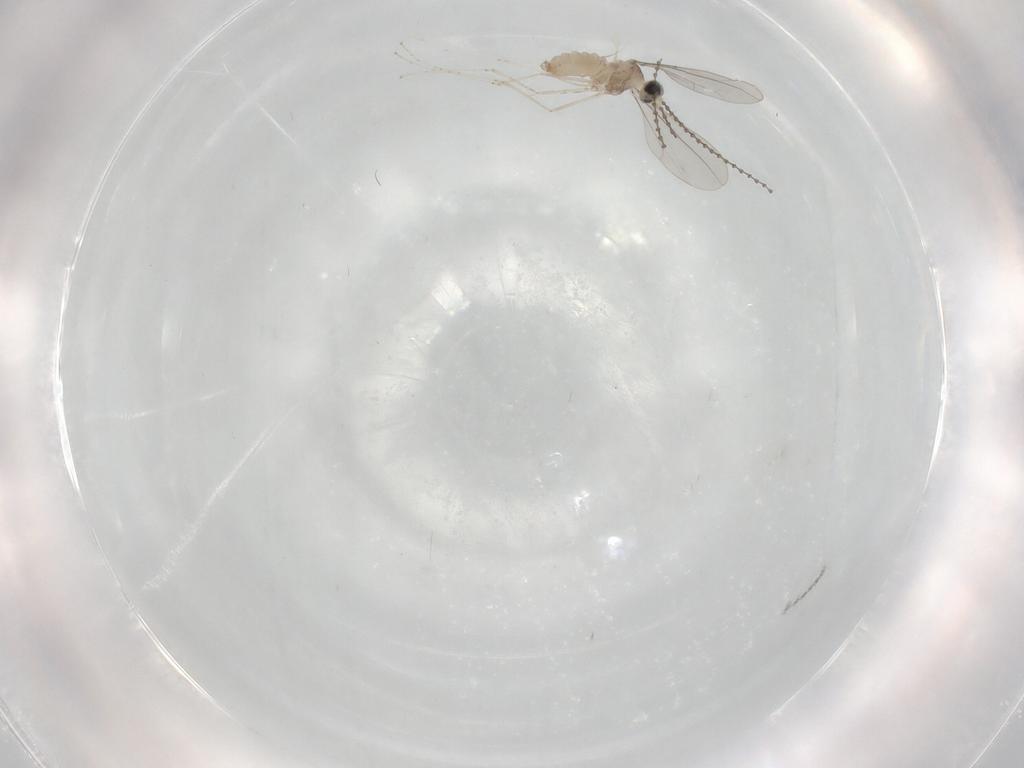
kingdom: Animalia
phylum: Arthropoda
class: Insecta
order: Diptera
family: Cecidomyiidae
